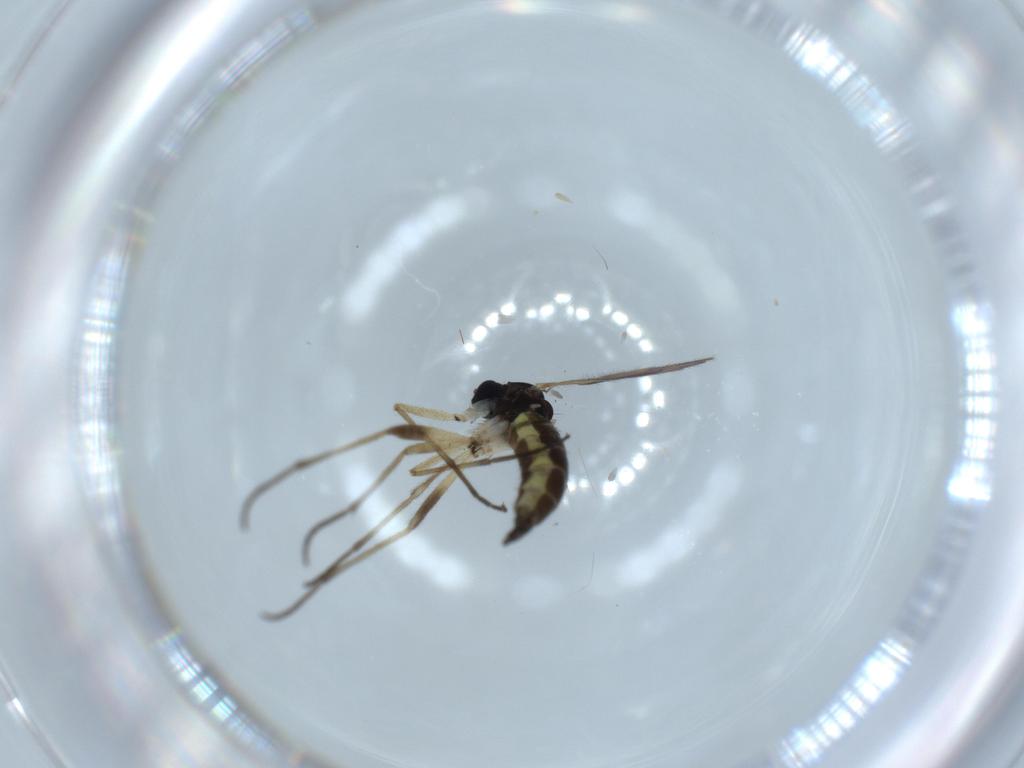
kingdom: Animalia
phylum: Arthropoda
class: Insecta
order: Diptera
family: Sciaridae
